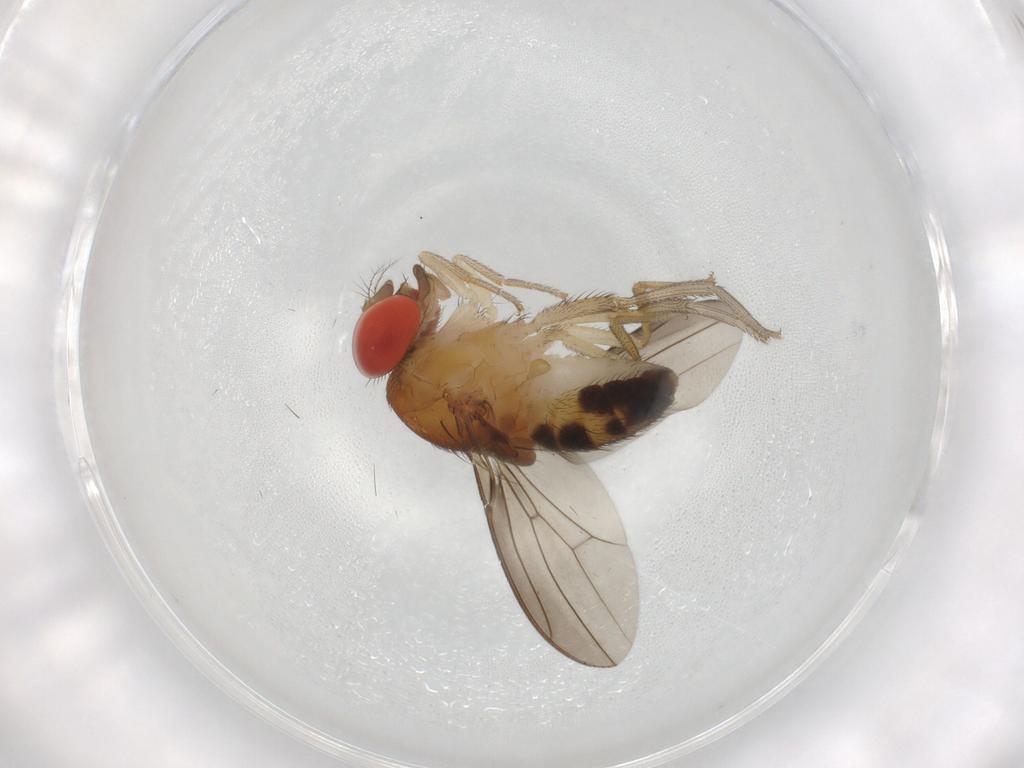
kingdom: Animalia
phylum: Arthropoda
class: Insecta
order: Diptera
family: Drosophilidae
